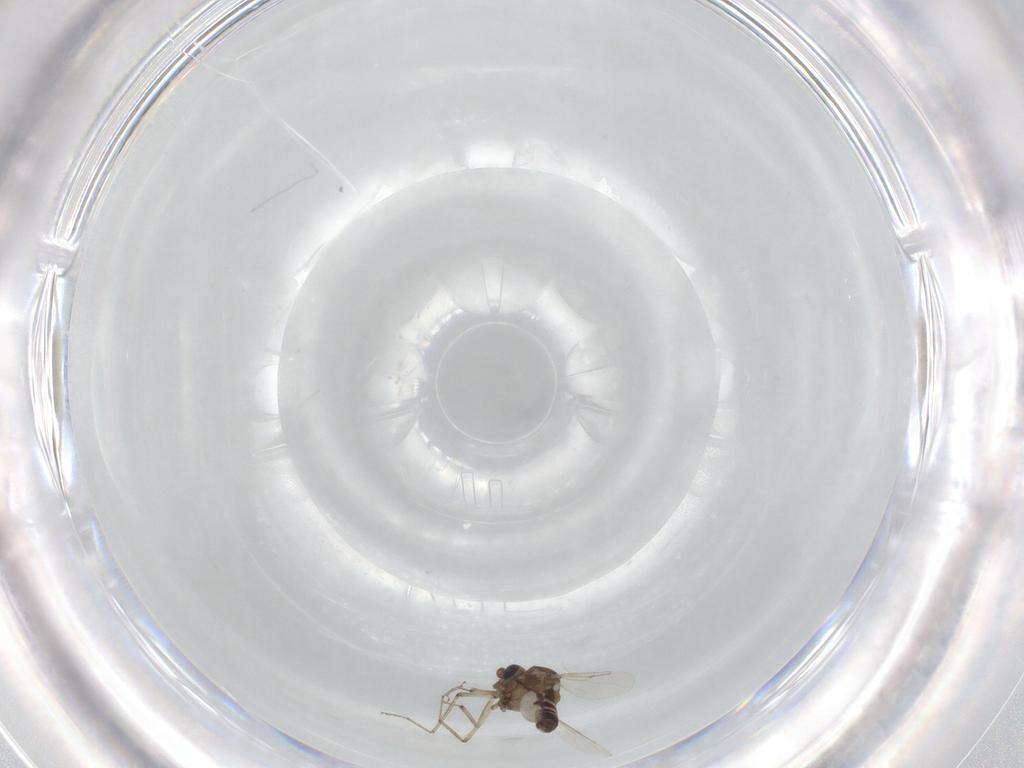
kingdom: Animalia
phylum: Arthropoda
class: Insecta
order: Diptera
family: Ceratopogonidae
